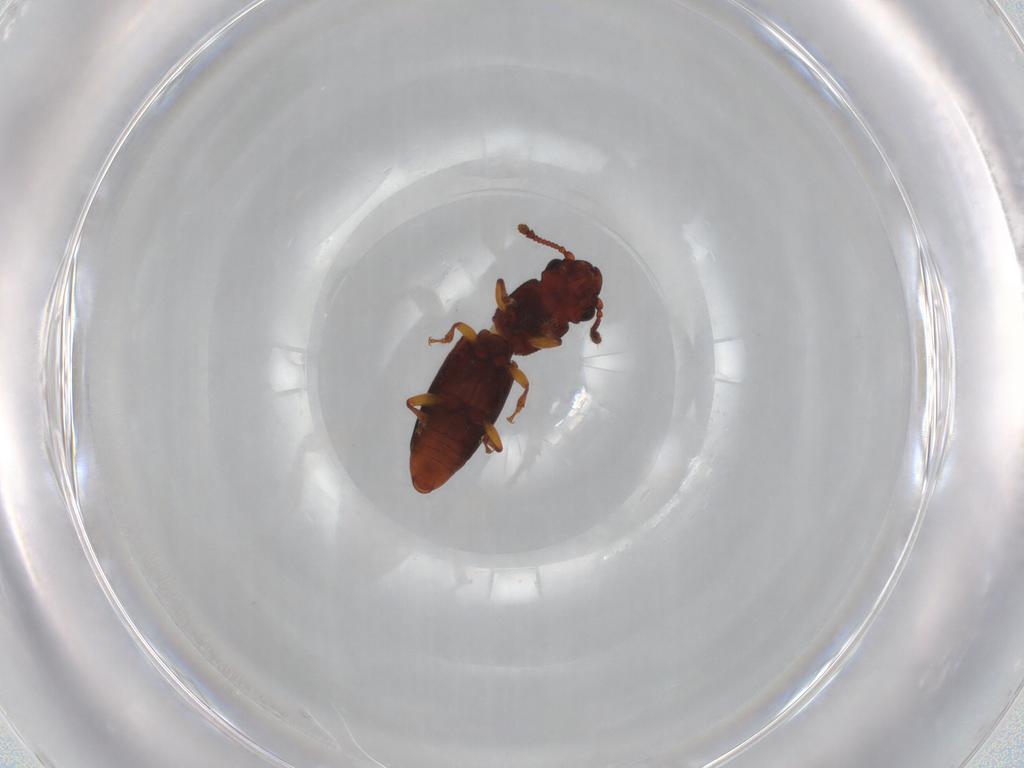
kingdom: Animalia
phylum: Arthropoda
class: Insecta
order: Coleoptera
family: Monotomidae
